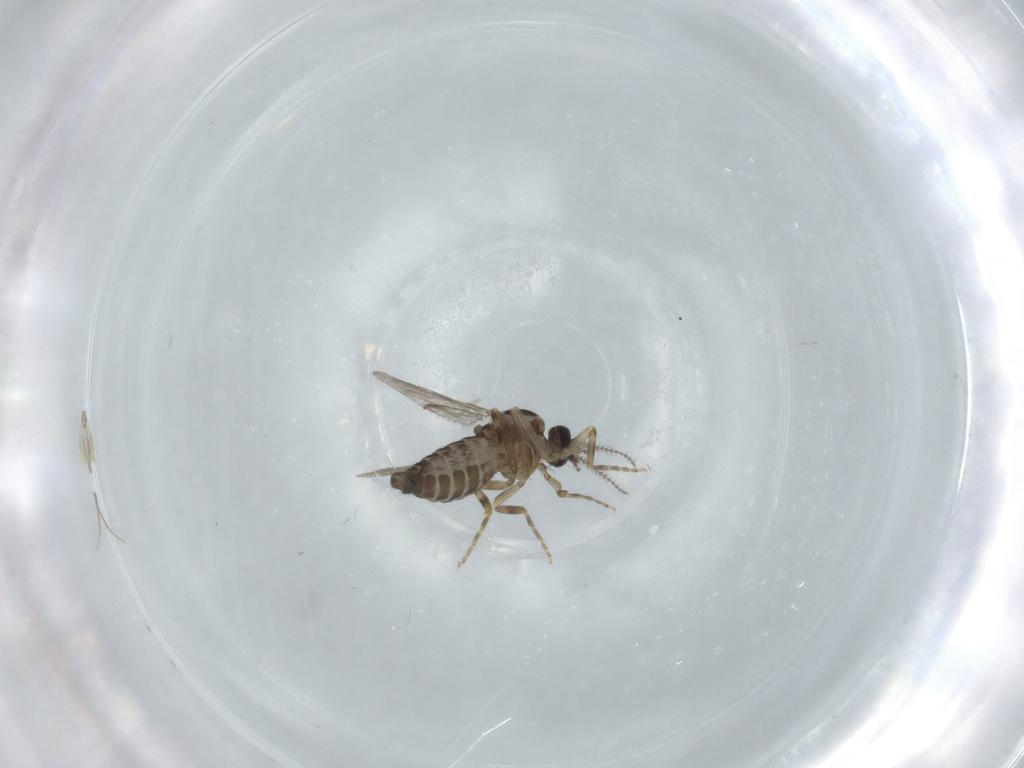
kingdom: Animalia
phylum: Arthropoda
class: Insecta
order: Diptera
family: Ceratopogonidae
